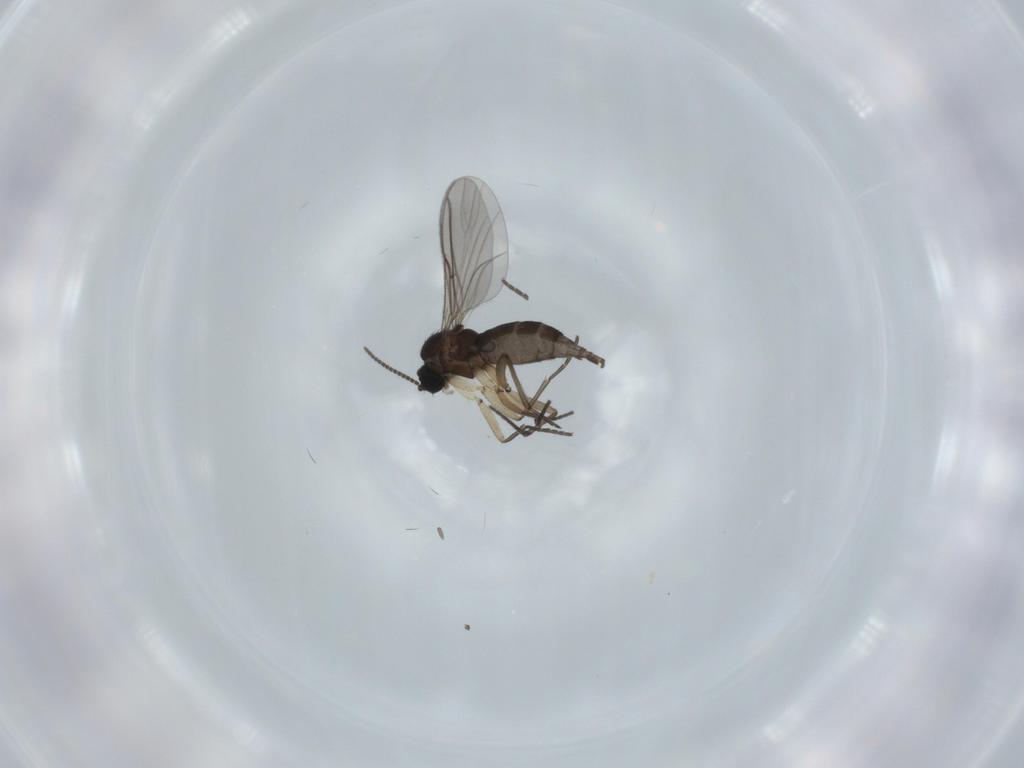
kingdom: Animalia
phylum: Arthropoda
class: Insecta
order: Diptera
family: Sciaridae
